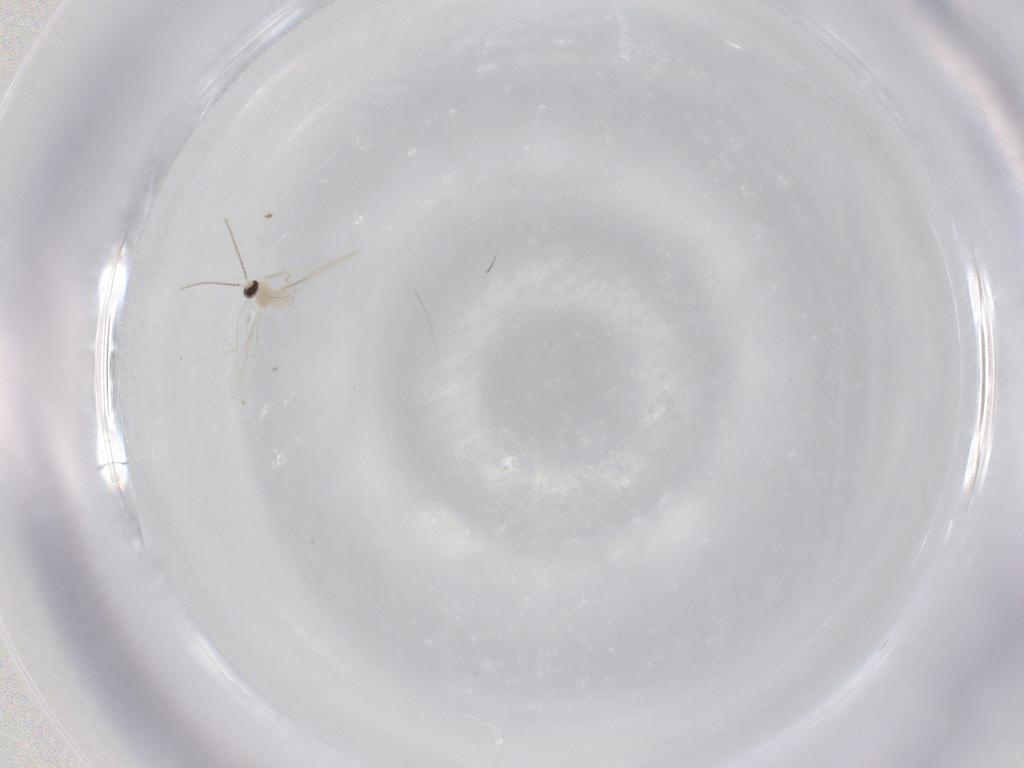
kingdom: Animalia
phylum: Arthropoda
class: Insecta
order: Diptera
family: Cecidomyiidae
